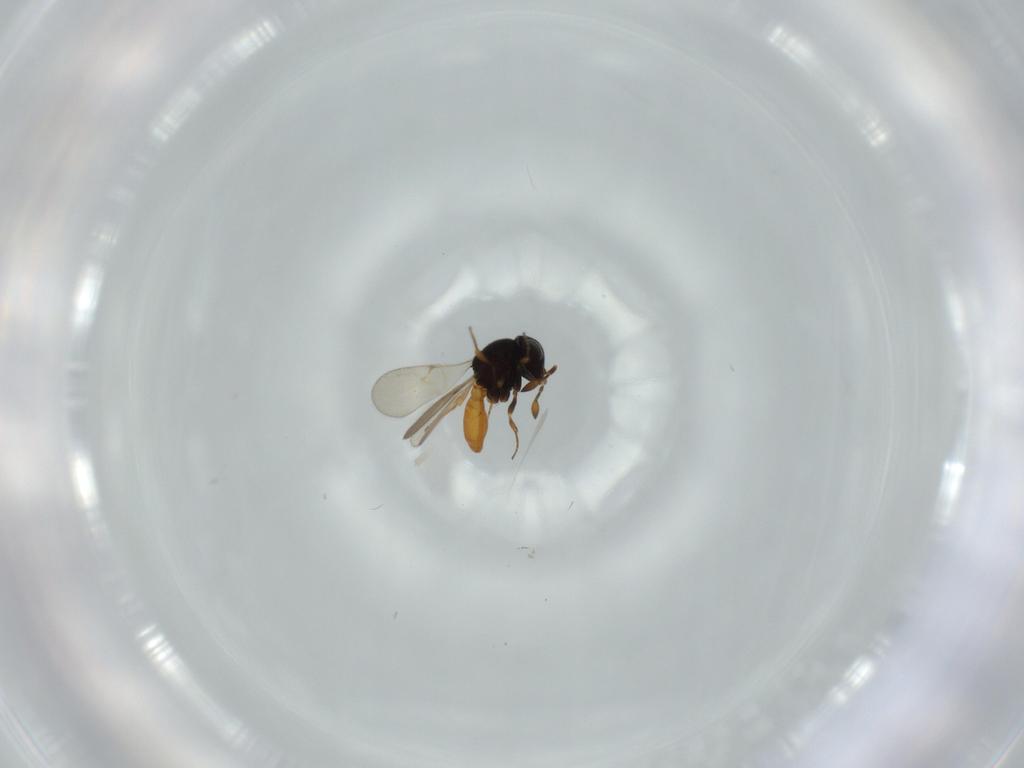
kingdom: Animalia
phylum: Arthropoda
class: Insecta
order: Hymenoptera
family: Scelionidae
